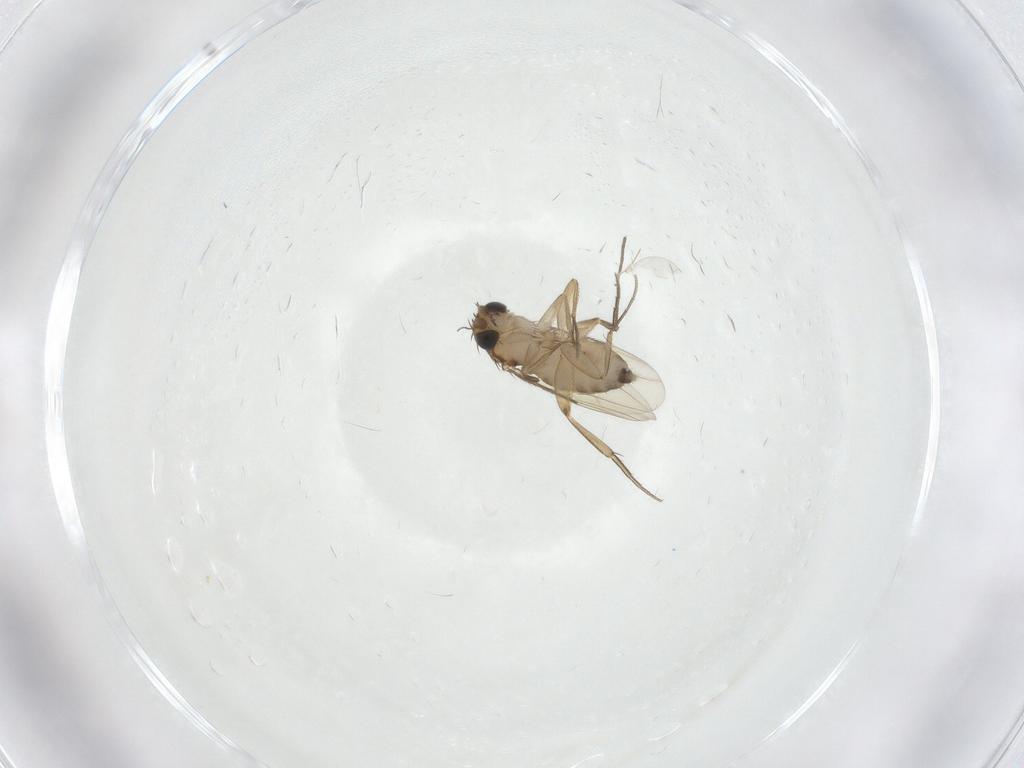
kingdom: Animalia
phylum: Arthropoda
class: Insecta
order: Diptera
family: Phoridae
